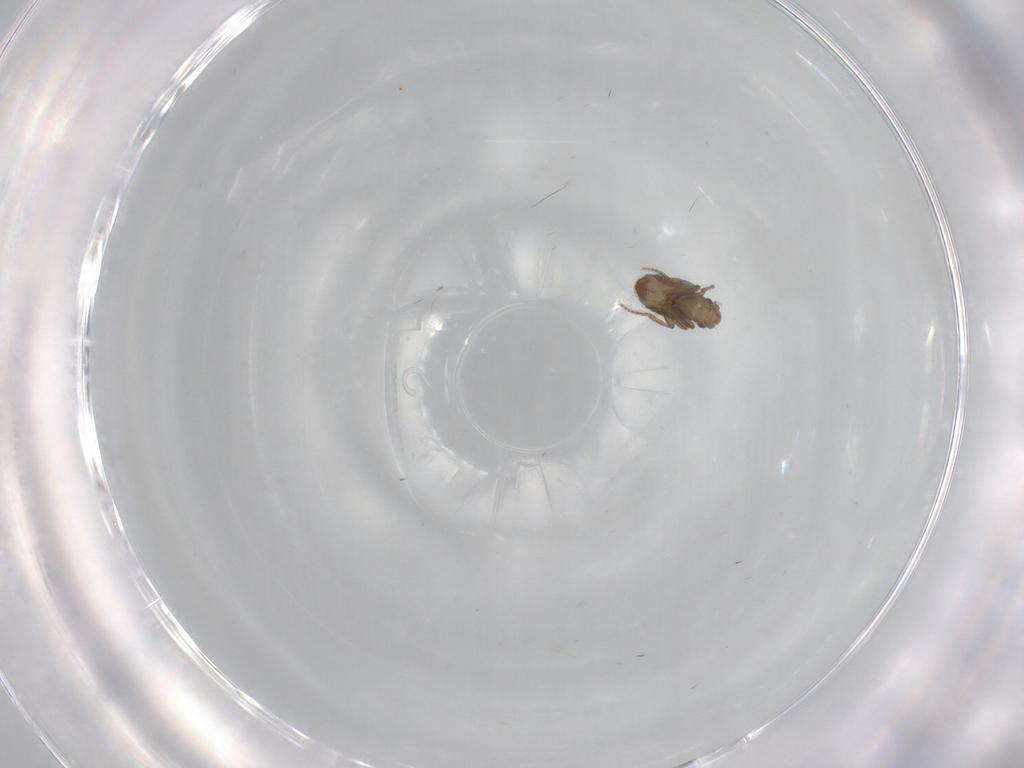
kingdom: Animalia
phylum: Arthropoda
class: Insecta
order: Diptera
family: Phoridae
